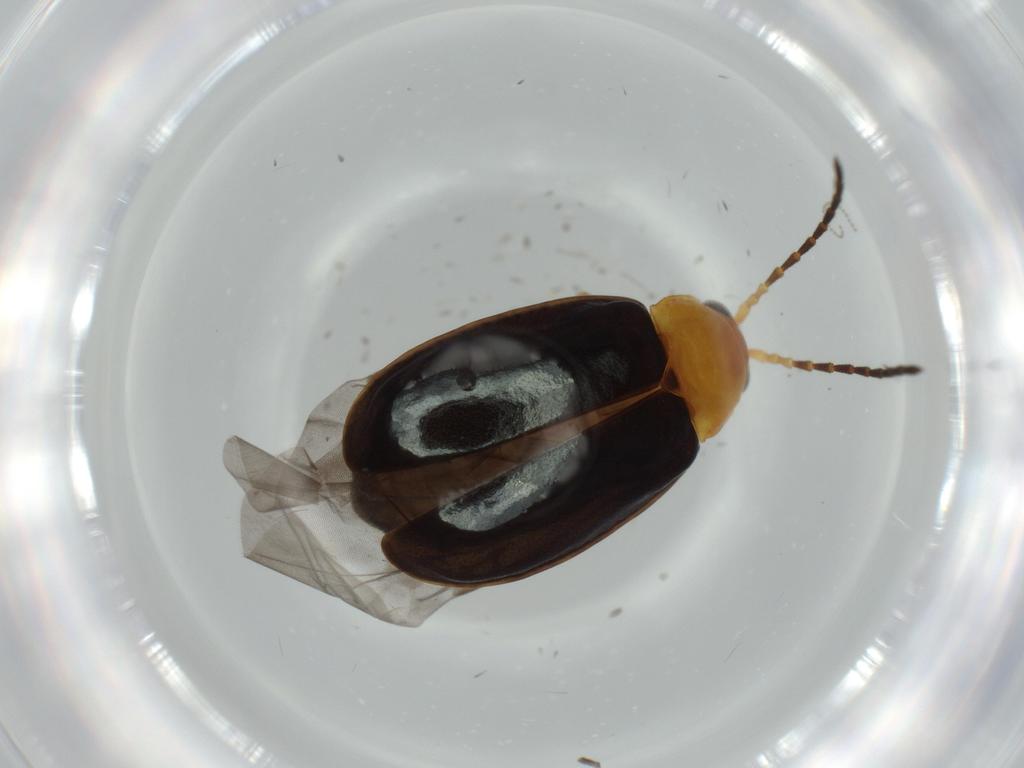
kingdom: Animalia
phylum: Arthropoda
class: Insecta
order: Coleoptera
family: Chrysomelidae
